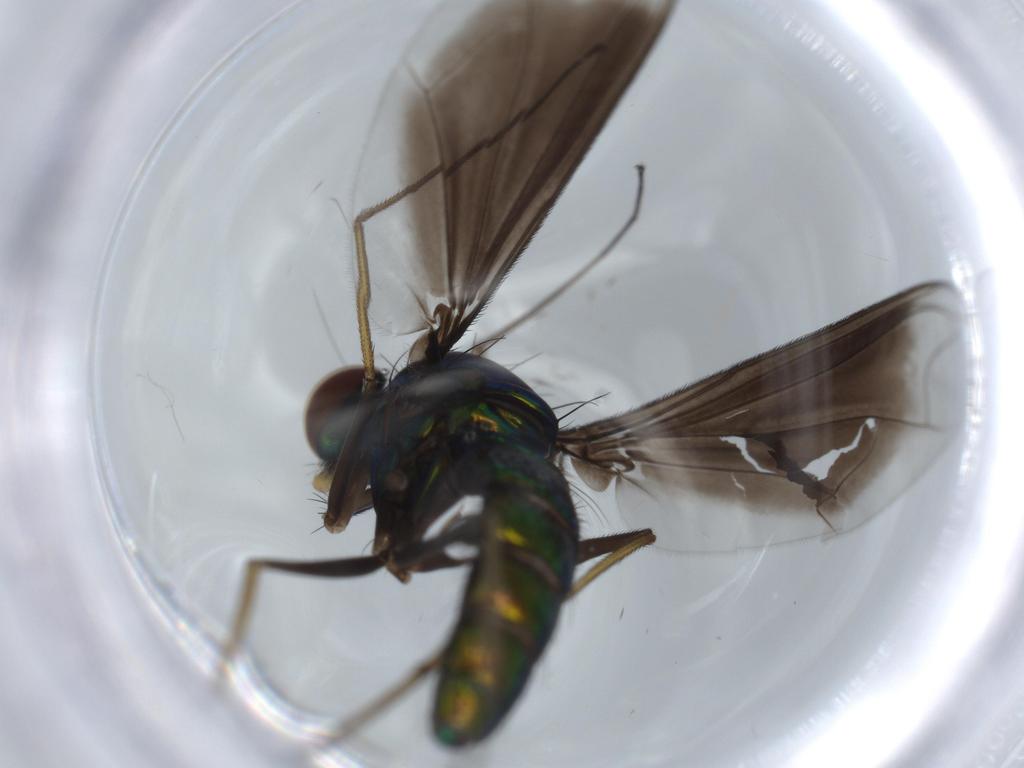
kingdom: Animalia
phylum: Arthropoda
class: Insecta
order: Diptera
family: Dolichopodidae
